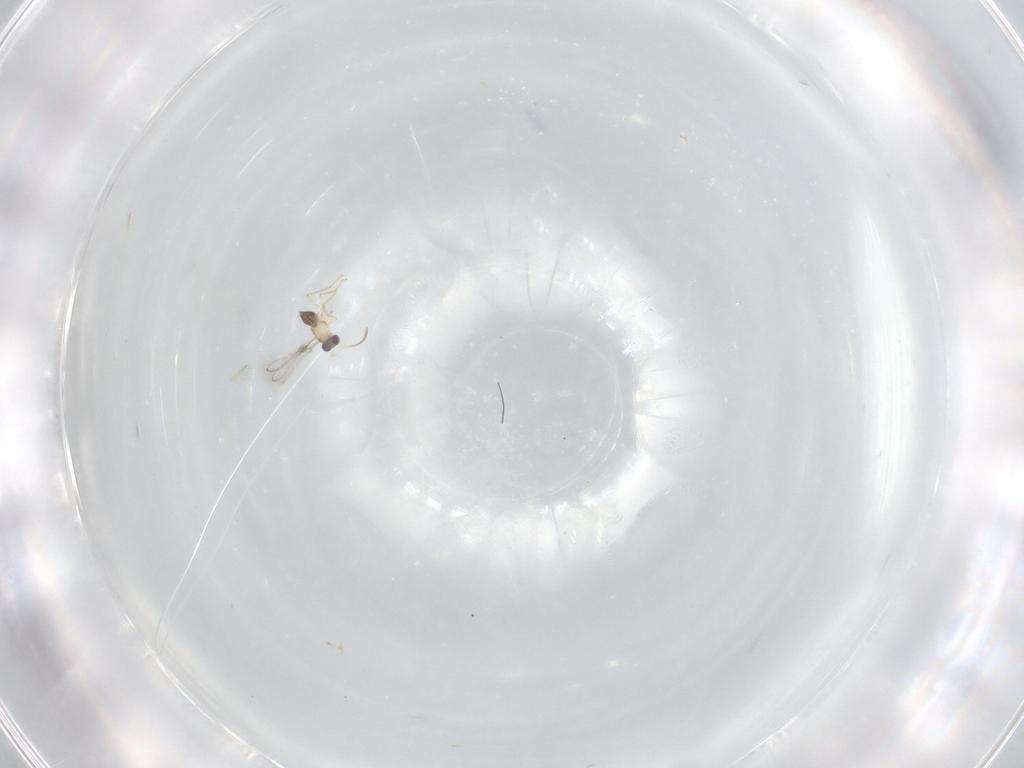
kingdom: Animalia
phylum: Arthropoda
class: Insecta
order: Hymenoptera
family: Mymaridae
